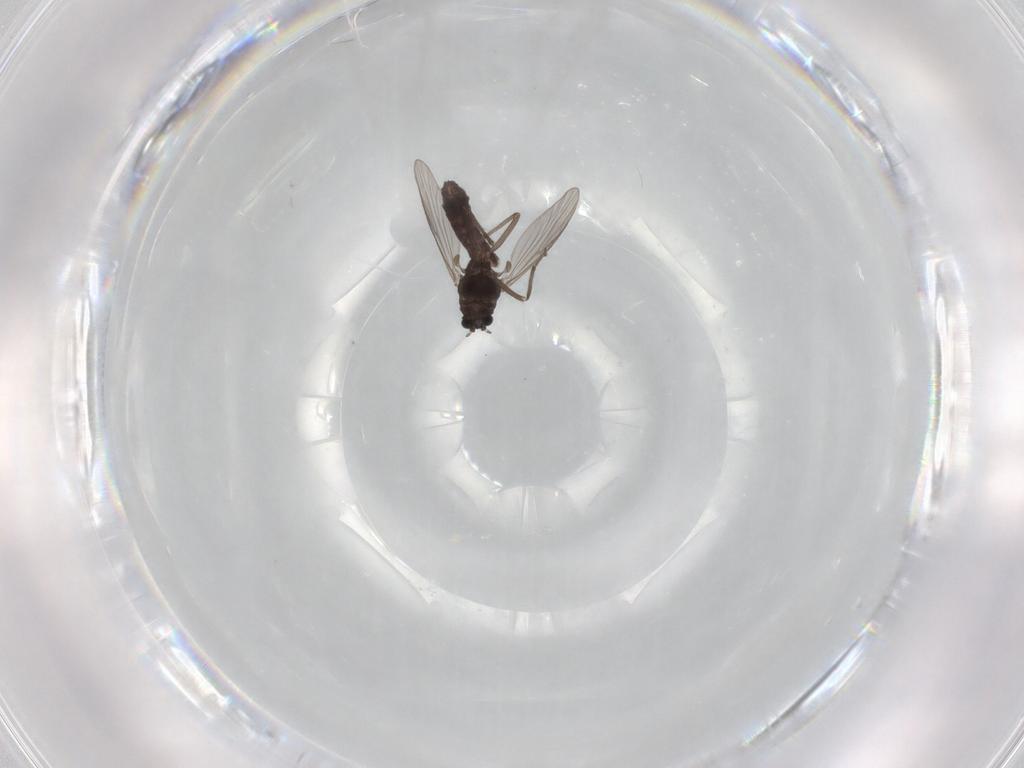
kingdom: Animalia
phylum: Arthropoda
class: Insecta
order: Diptera
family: Chironomidae
